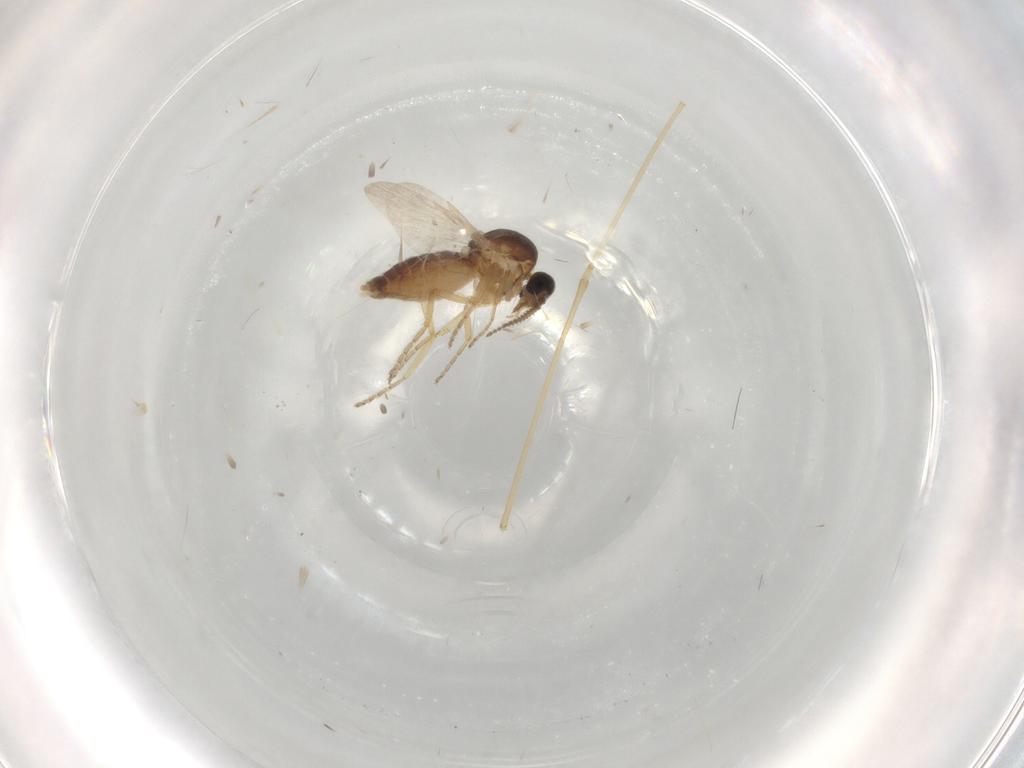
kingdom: Animalia
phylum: Arthropoda
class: Insecta
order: Diptera
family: Ceratopogonidae
